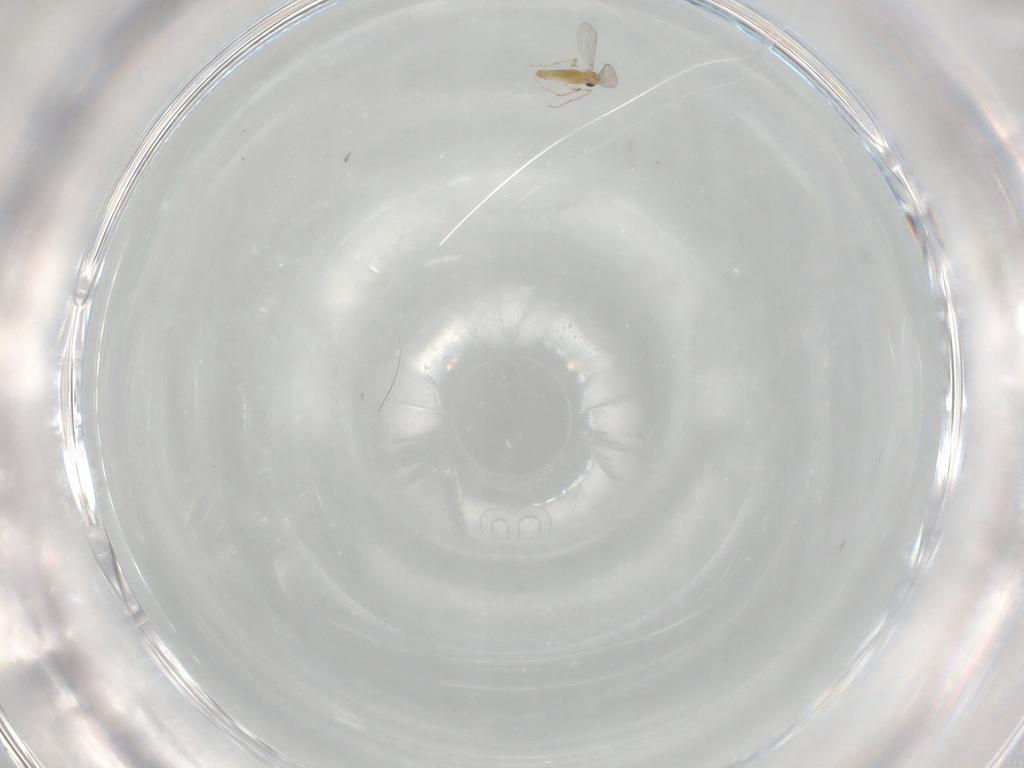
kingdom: Animalia
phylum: Arthropoda
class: Insecta
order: Diptera
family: Chironomidae
